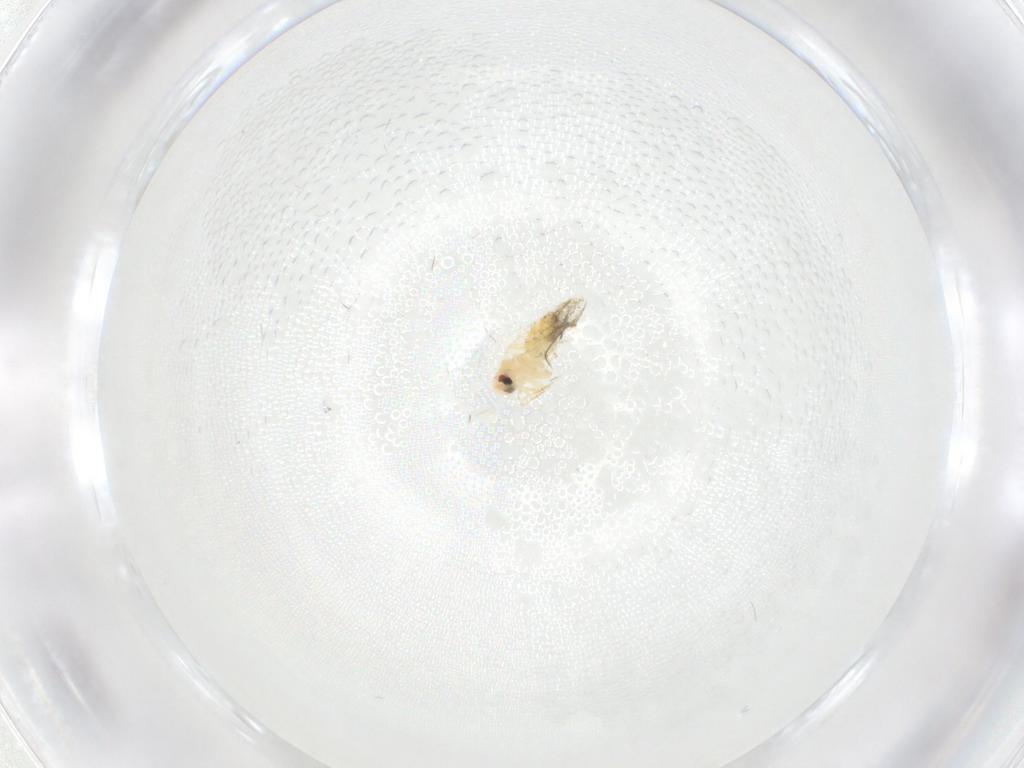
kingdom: Animalia
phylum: Arthropoda
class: Insecta
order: Hemiptera
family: Aleyrodidae
